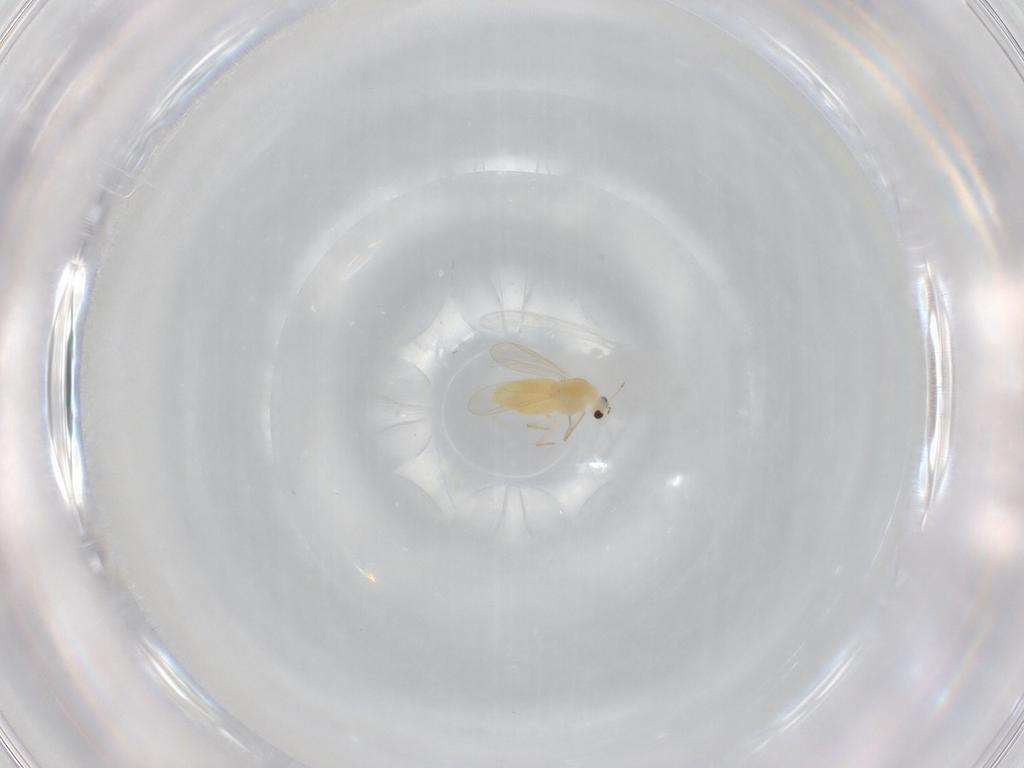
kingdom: Animalia
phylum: Arthropoda
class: Insecta
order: Diptera
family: Chironomidae
